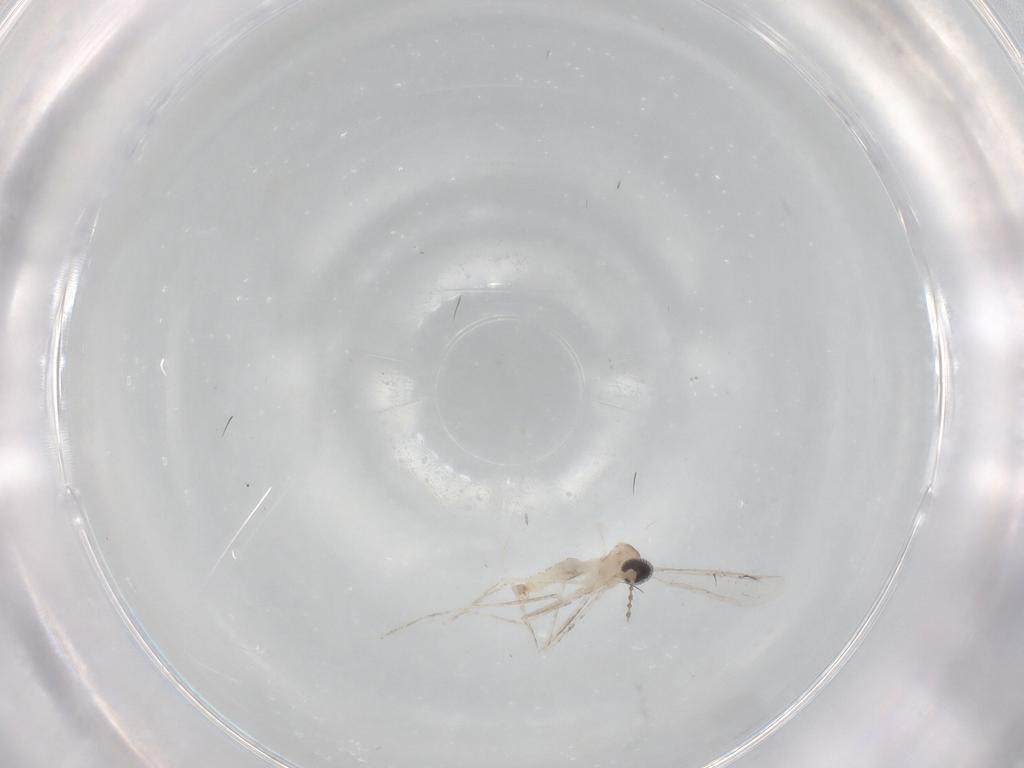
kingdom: Animalia
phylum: Arthropoda
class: Insecta
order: Diptera
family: Cecidomyiidae
